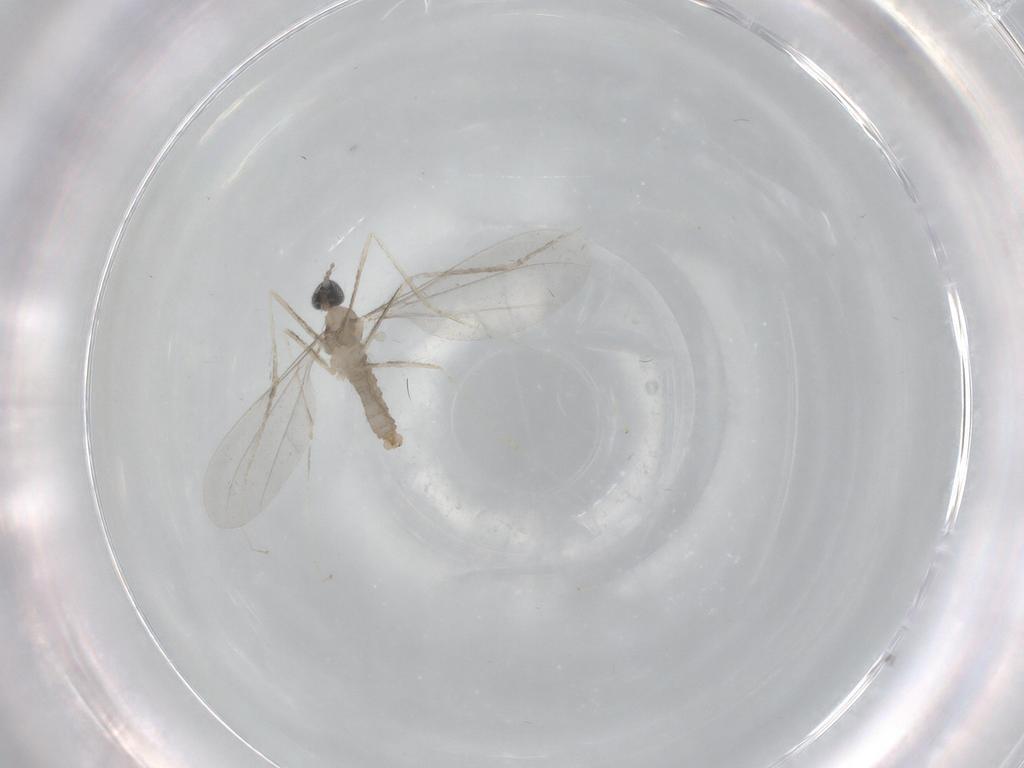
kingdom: Animalia
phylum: Arthropoda
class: Insecta
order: Diptera
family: Cecidomyiidae
